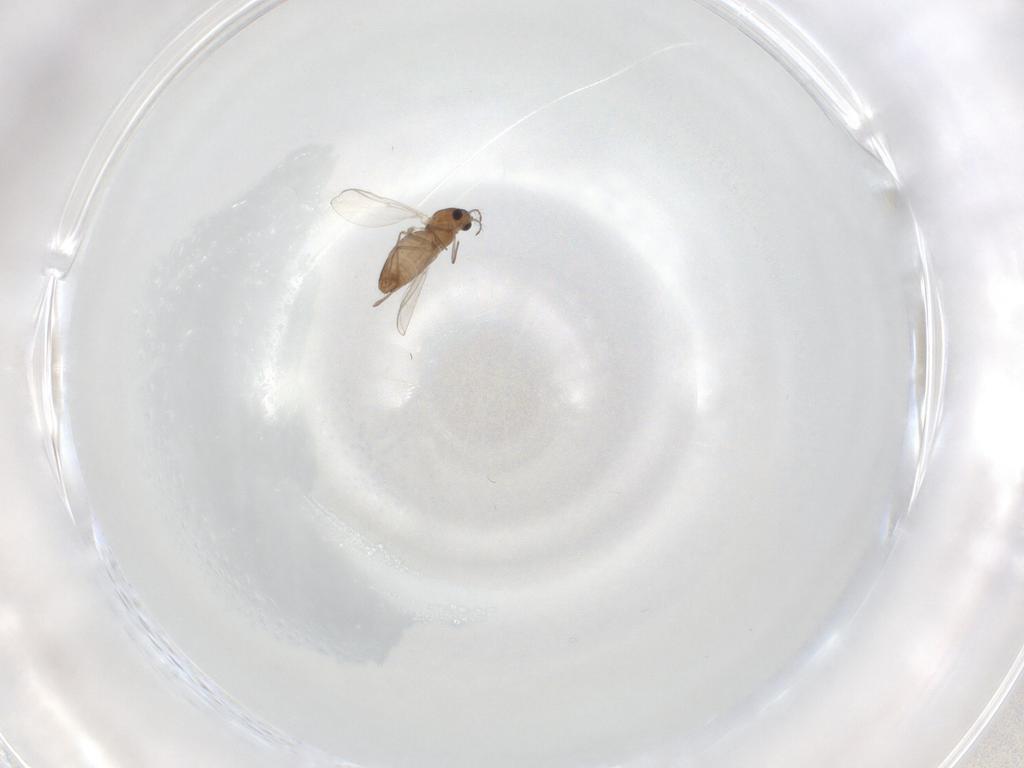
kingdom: Animalia
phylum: Arthropoda
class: Insecta
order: Diptera
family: Chironomidae
